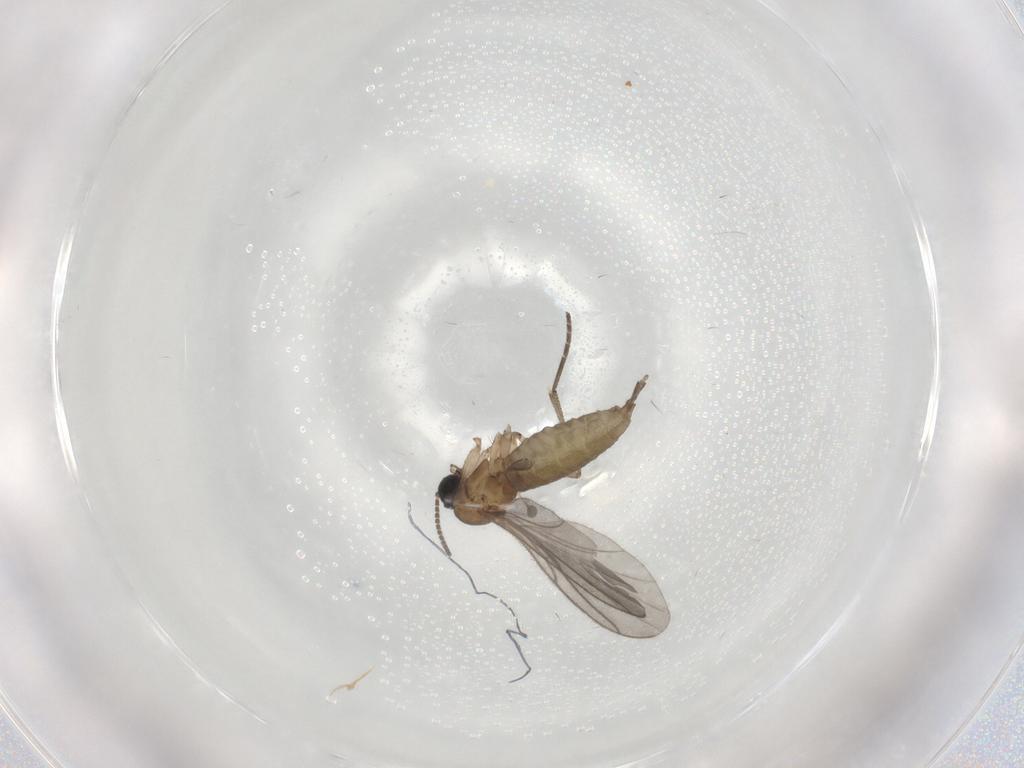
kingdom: Animalia
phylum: Arthropoda
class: Insecta
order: Diptera
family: Sciaridae
